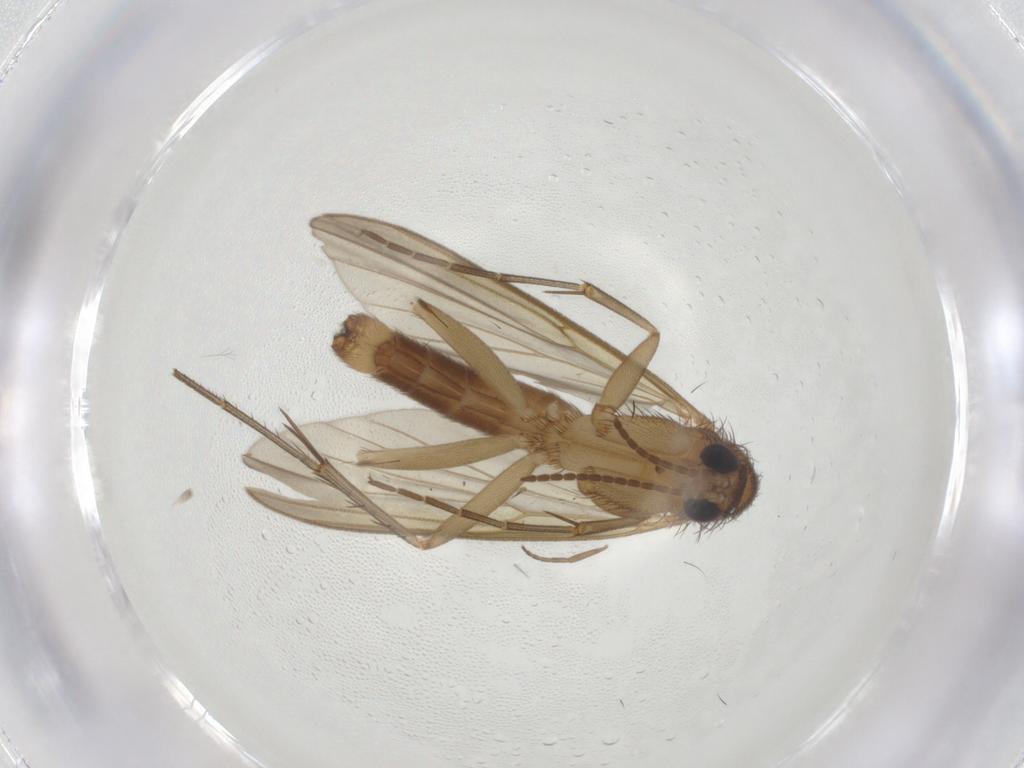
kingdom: Animalia
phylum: Arthropoda
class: Insecta
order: Diptera
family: Mycetophilidae
